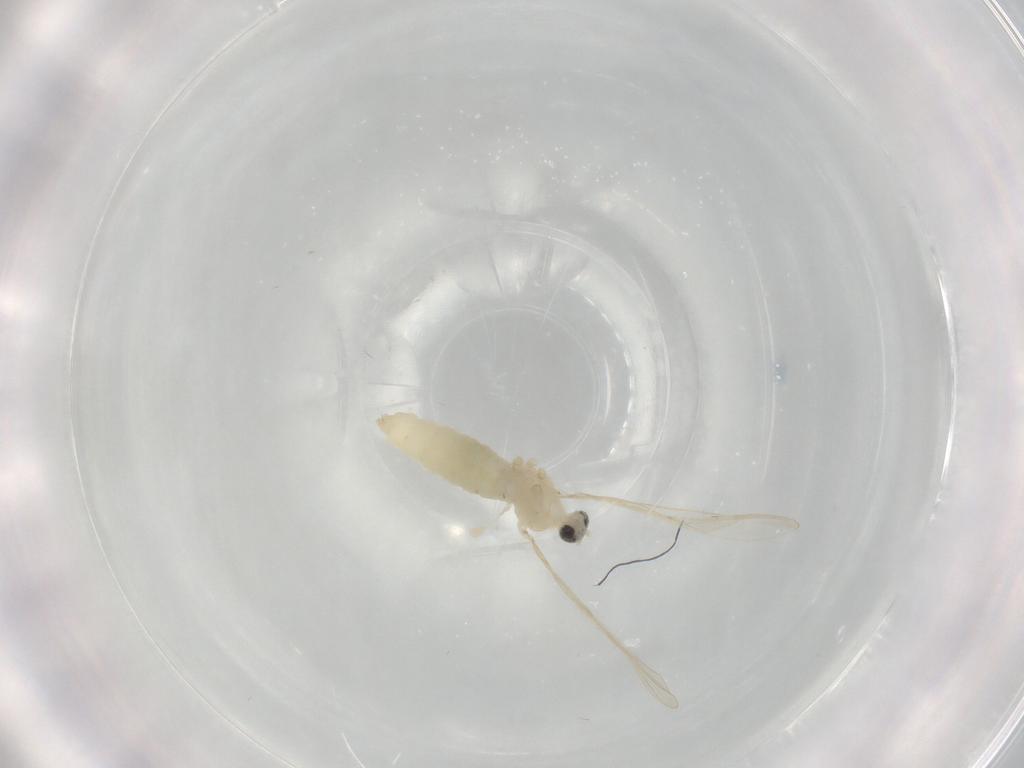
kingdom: Animalia
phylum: Arthropoda
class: Insecta
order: Diptera
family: Cecidomyiidae
